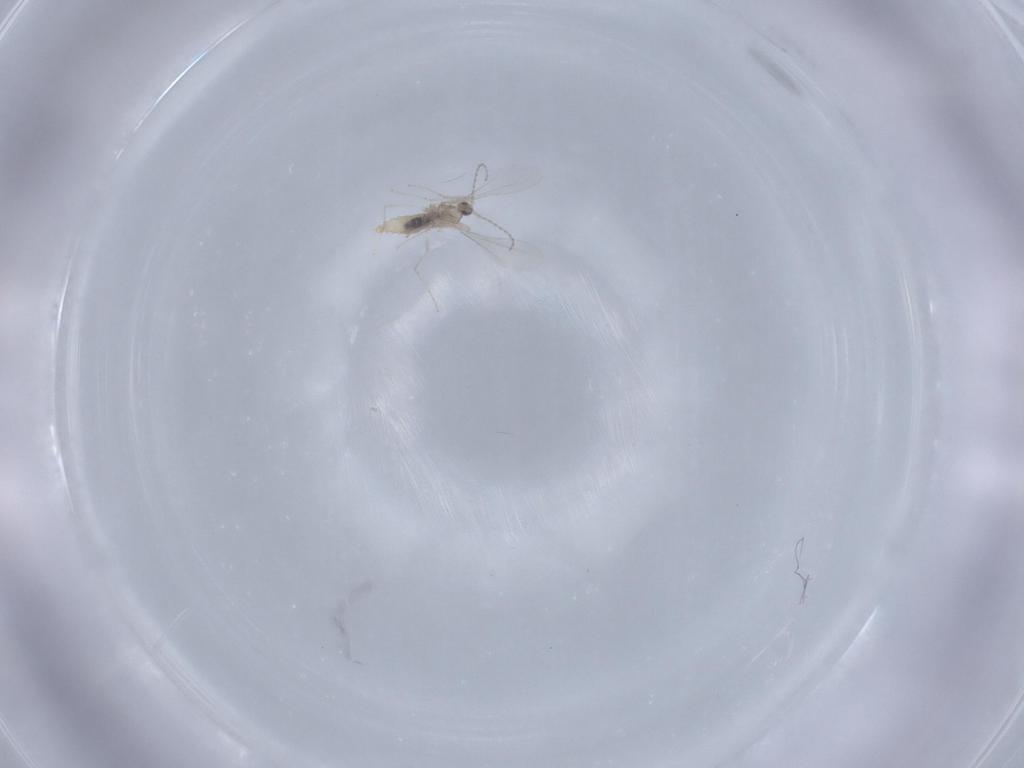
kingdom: Animalia
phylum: Arthropoda
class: Insecta
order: Diptera
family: Cecidomyiidae
